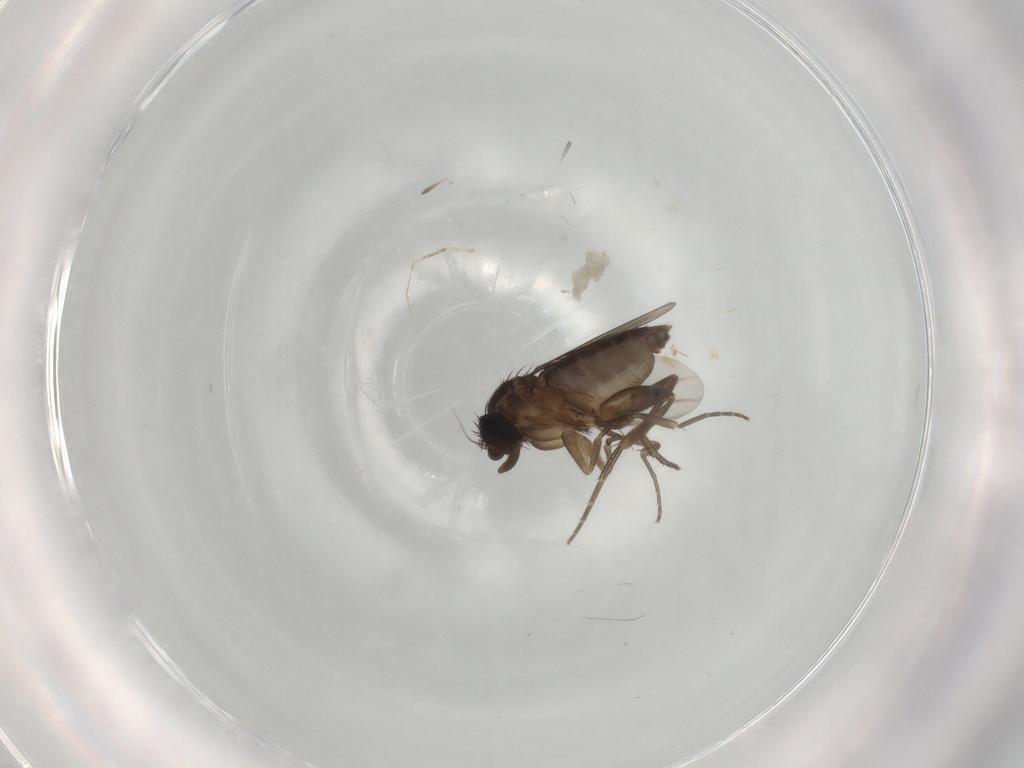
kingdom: Animalia
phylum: Arthropoda
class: Insecta
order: Diptera
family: Phoridae
